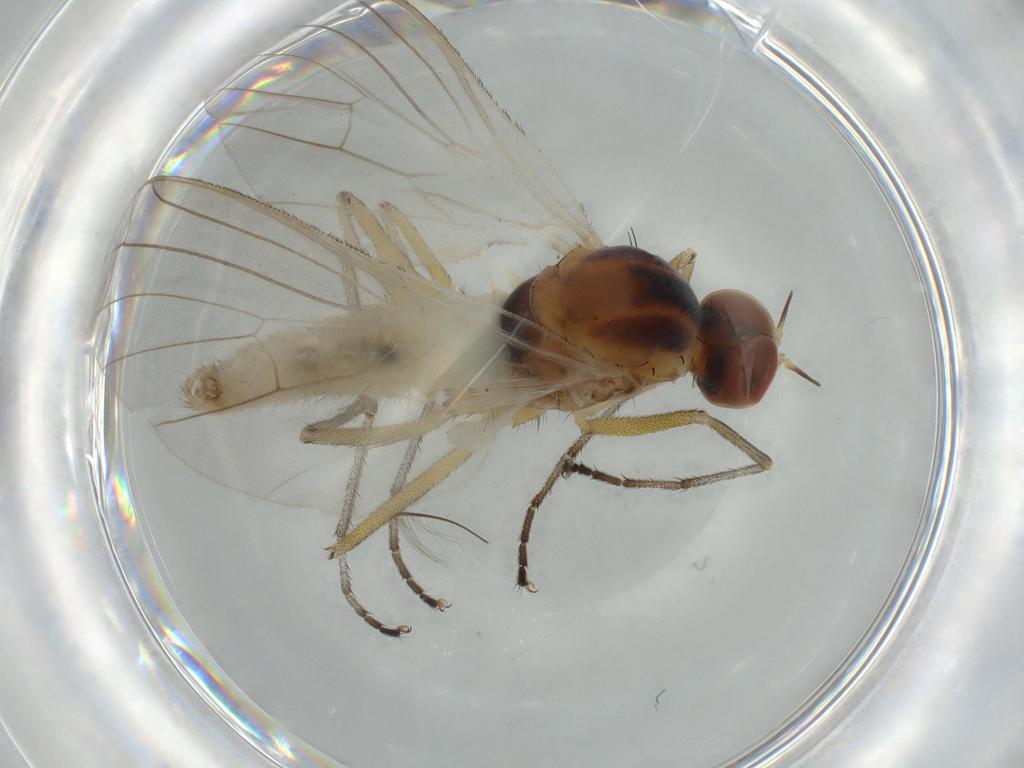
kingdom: Animalia
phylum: Arthropoda
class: Insecta
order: Diptera
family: Empididae
